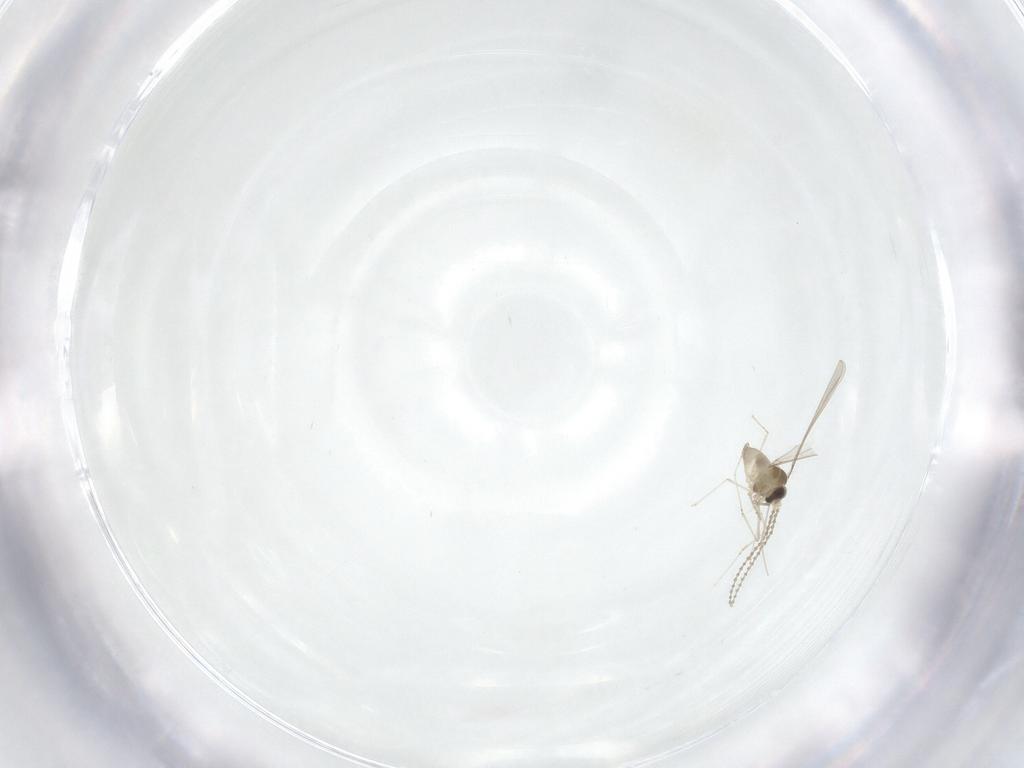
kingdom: Animalia
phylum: Arthropoda
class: Insecta
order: Diptera
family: Cecidomyiidae
